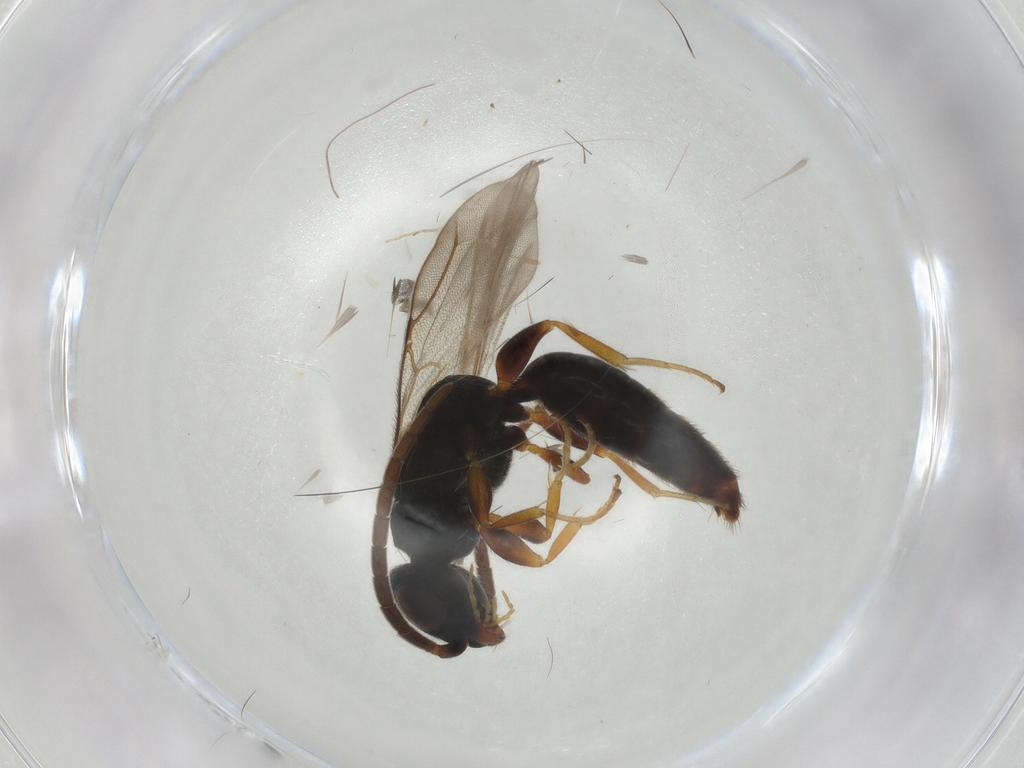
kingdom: Animalia
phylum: Arthropoda
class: Insecta
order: Hymenoptera
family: Bethylidae
